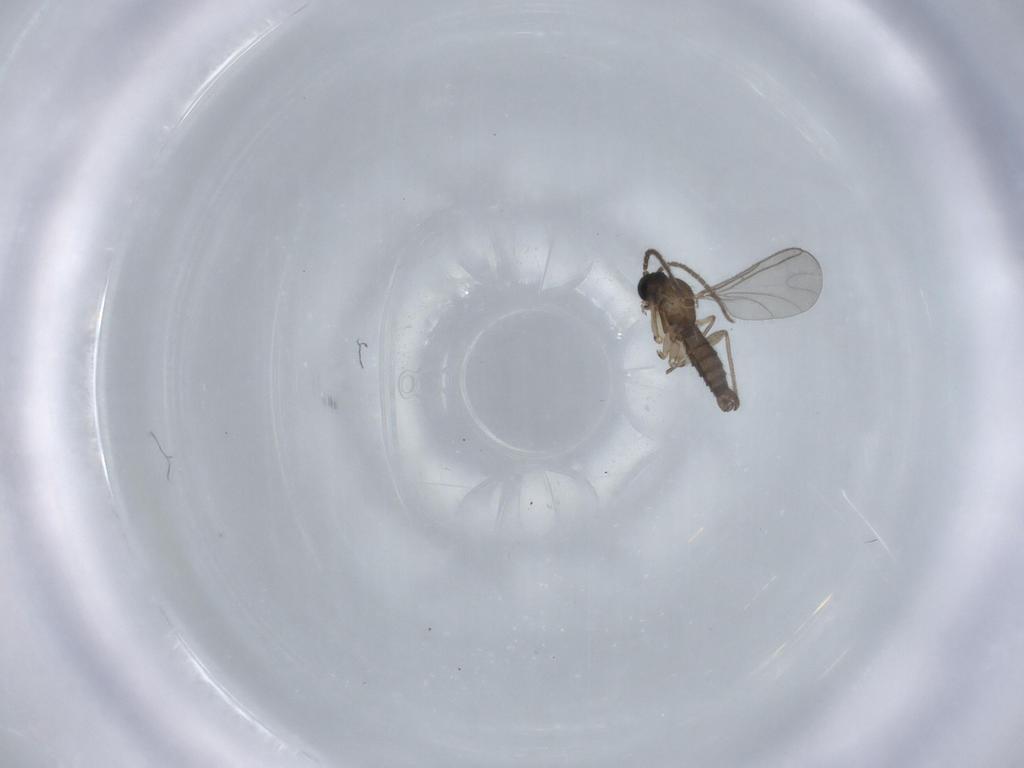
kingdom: Animalia
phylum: Arthropoda
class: Insecta
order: Diptera
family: Sciaridae
